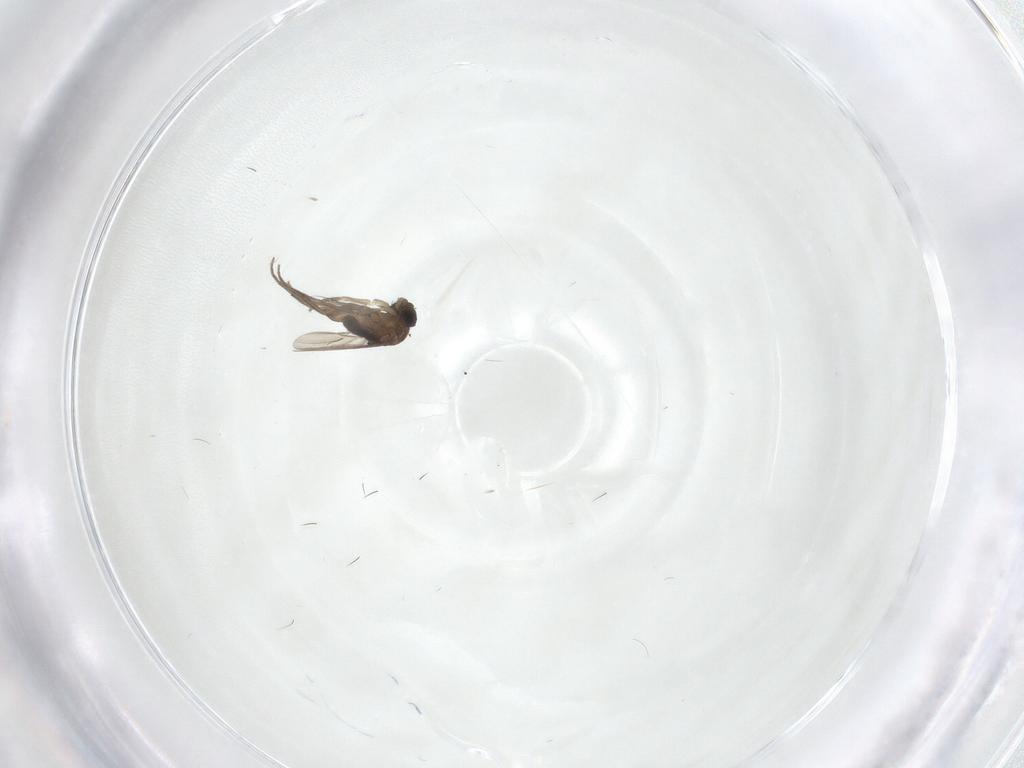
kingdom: Animalia
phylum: Arthropoda
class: Insecta
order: Diptera
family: Phoridae
